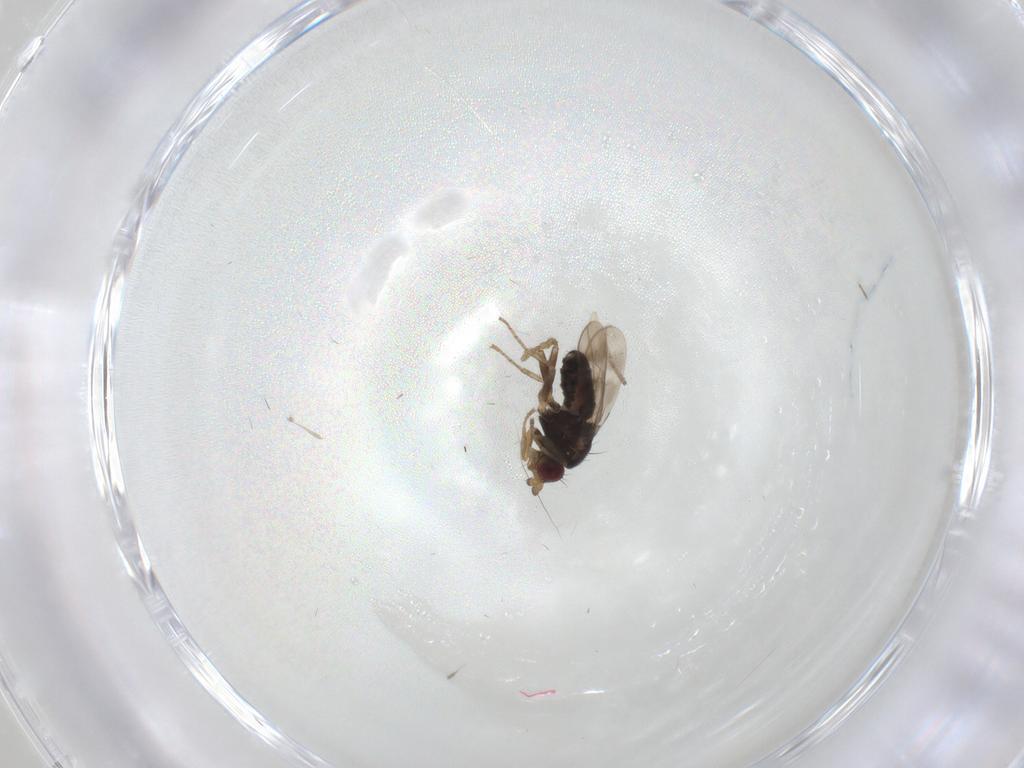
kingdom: Animalia
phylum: Arthropoda
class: Insecta
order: Diptera
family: Sphaeroceridae
